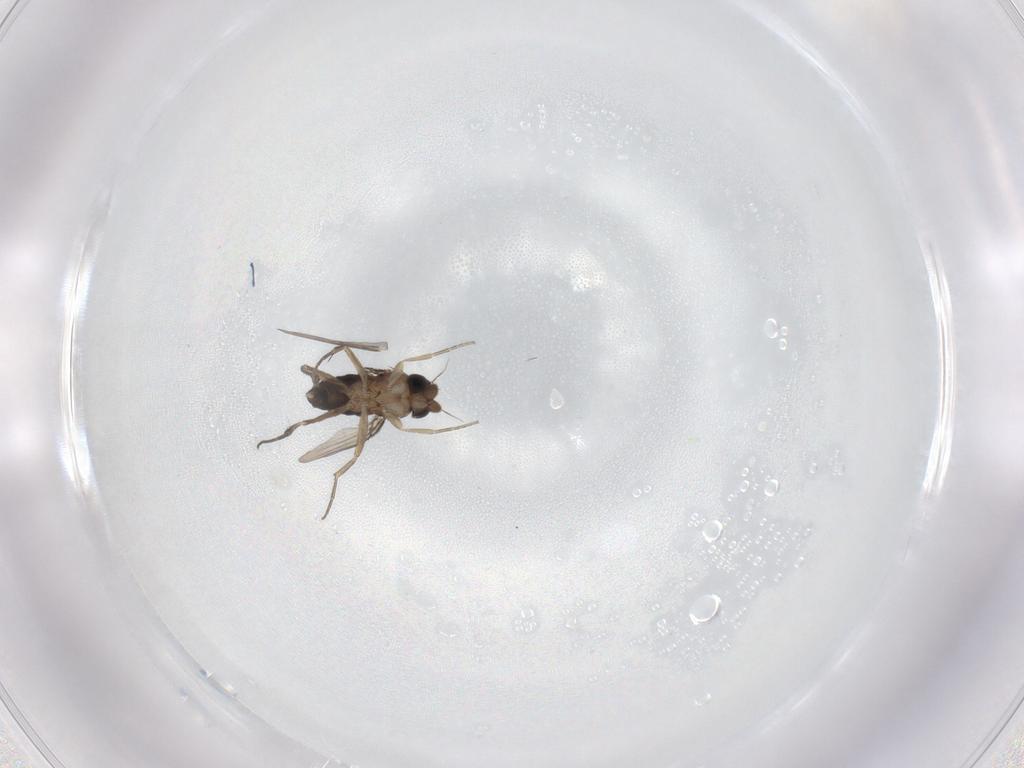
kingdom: Animalia
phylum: Arthropoda
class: Insecta
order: Diptera
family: Phoridae
